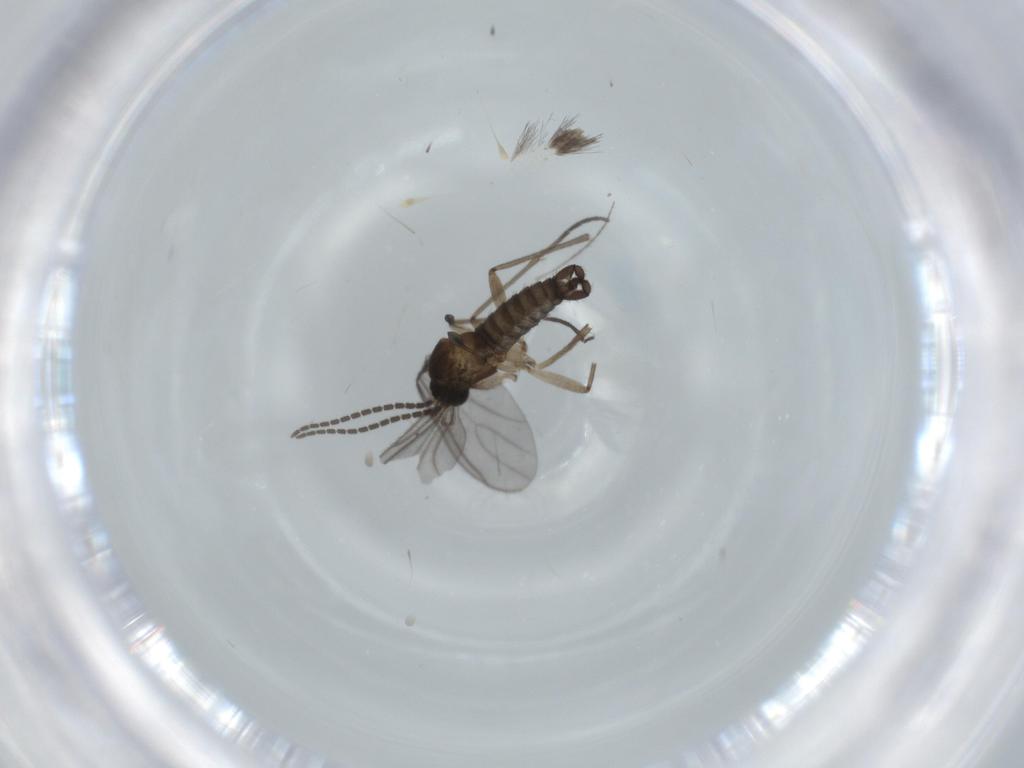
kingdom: Animalia
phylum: Arthropoda
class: Insecta
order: Diptera
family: Sciaridae
